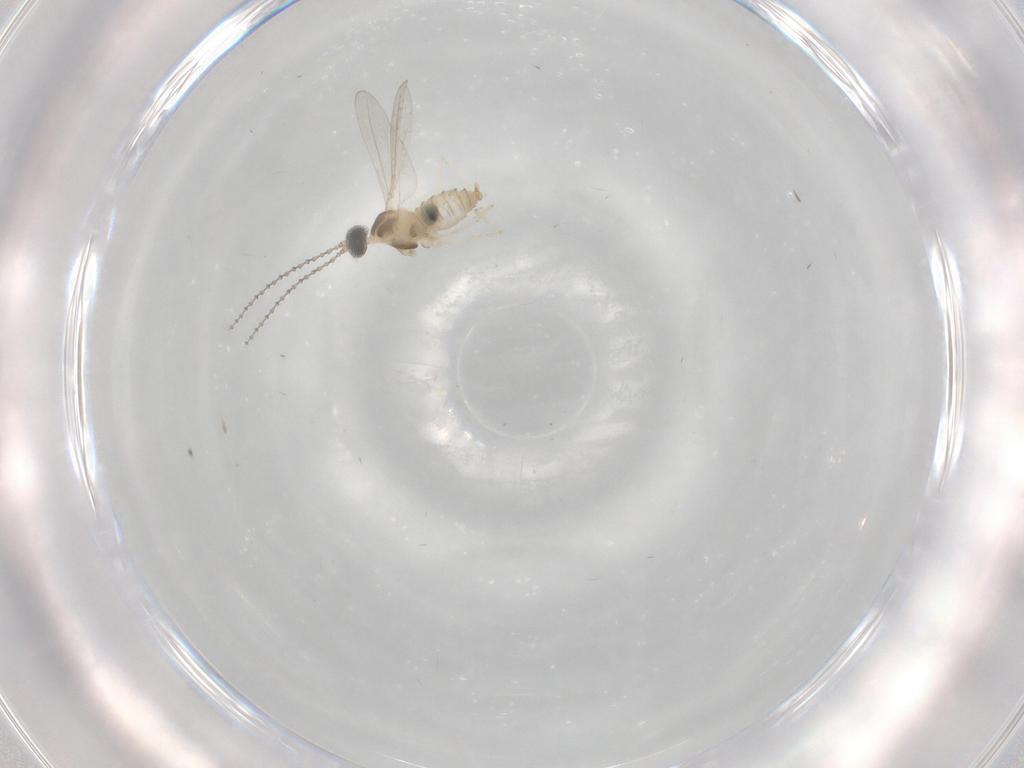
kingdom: Animalia
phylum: Arthropoda
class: Insecta
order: Diptera
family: Cecidomyiidae
